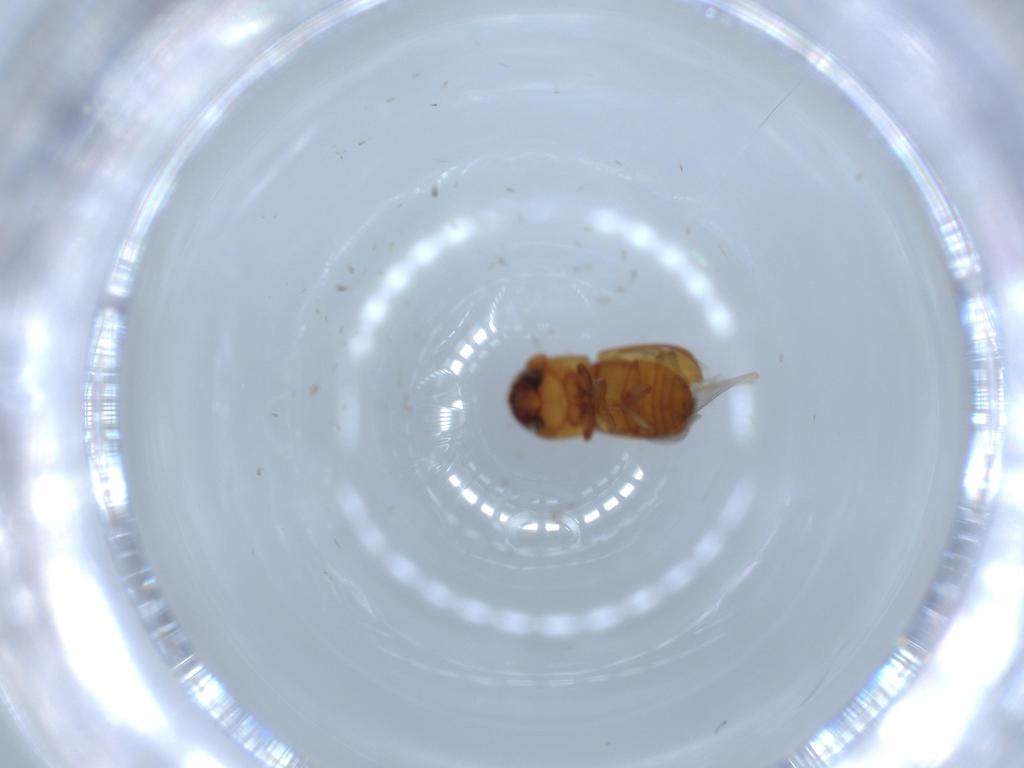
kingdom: Animalia
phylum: Arthropoda
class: Insecta
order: Coleoptera
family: Curculionidae
